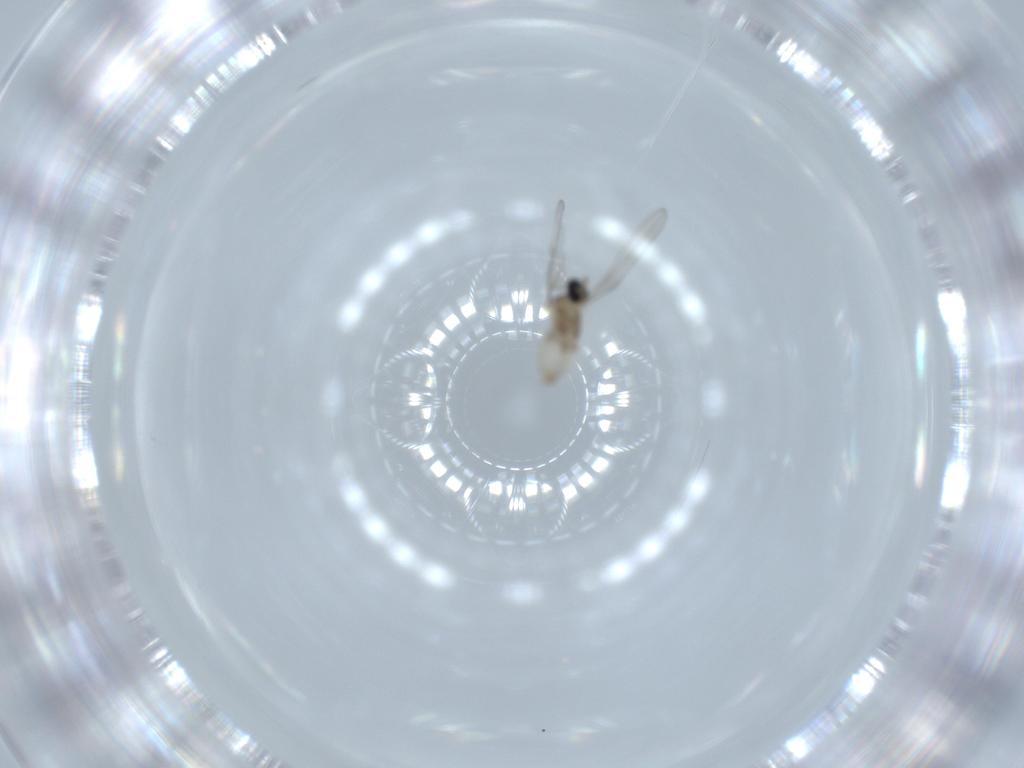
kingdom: Animalia
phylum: Arthropoda
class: Insecta
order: Diptera
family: Cecidomyiidae
